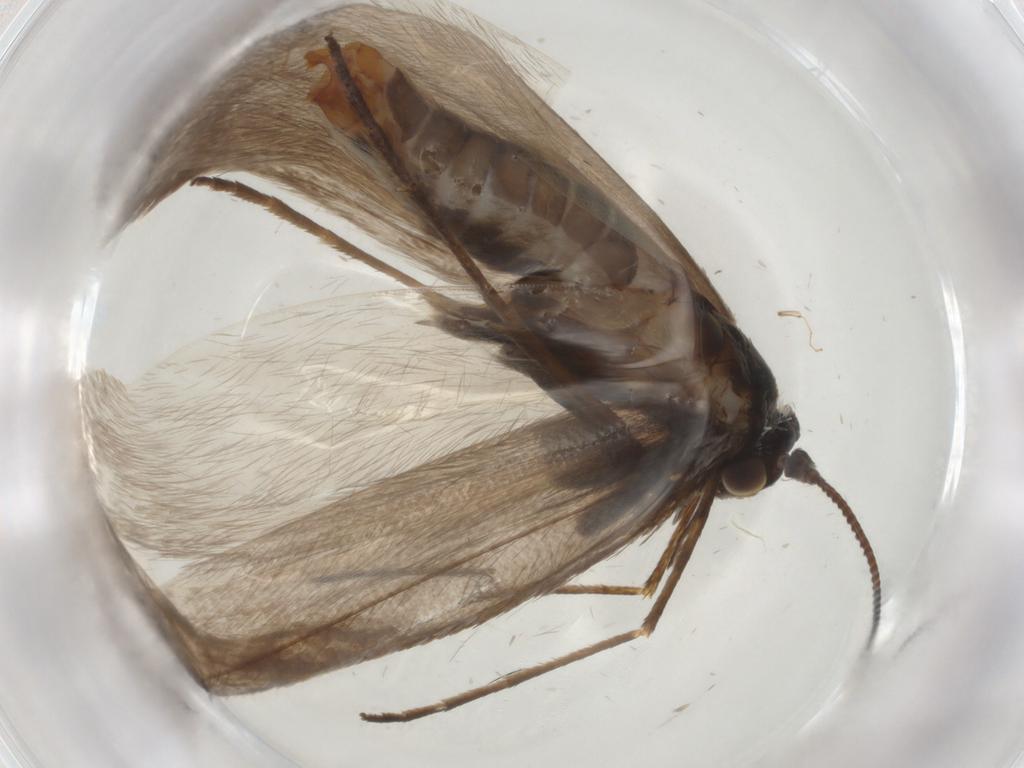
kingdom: Animalia
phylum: Arthropoda
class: Insecta
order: Lepidoptera
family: Adelidae
